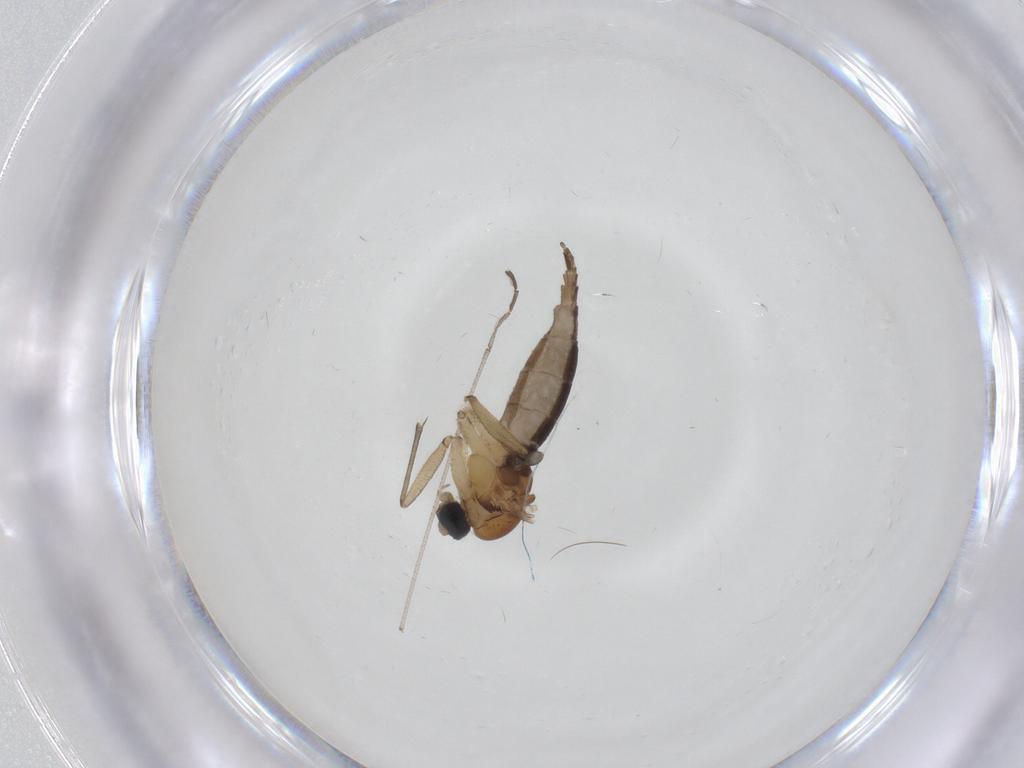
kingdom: Animalia
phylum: Arthropoda
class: Insecta
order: Diptera
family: Sciaridae
